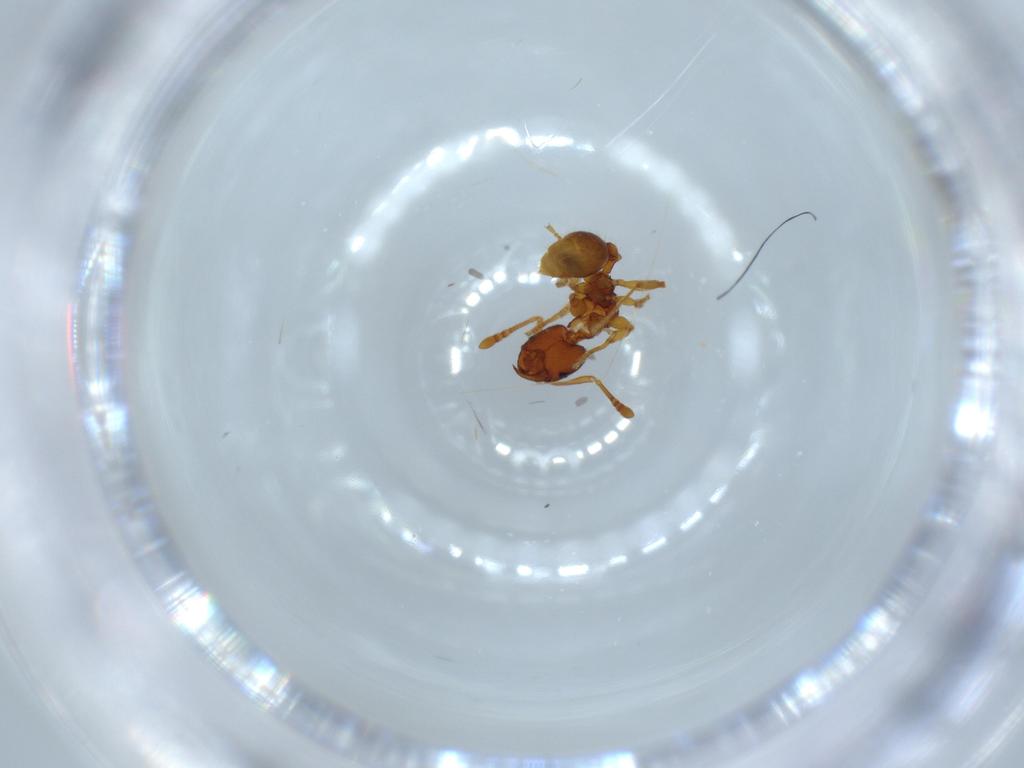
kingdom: Animalia
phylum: Arthropoda
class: Insecta
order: Hymenoptera
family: Formicidae
